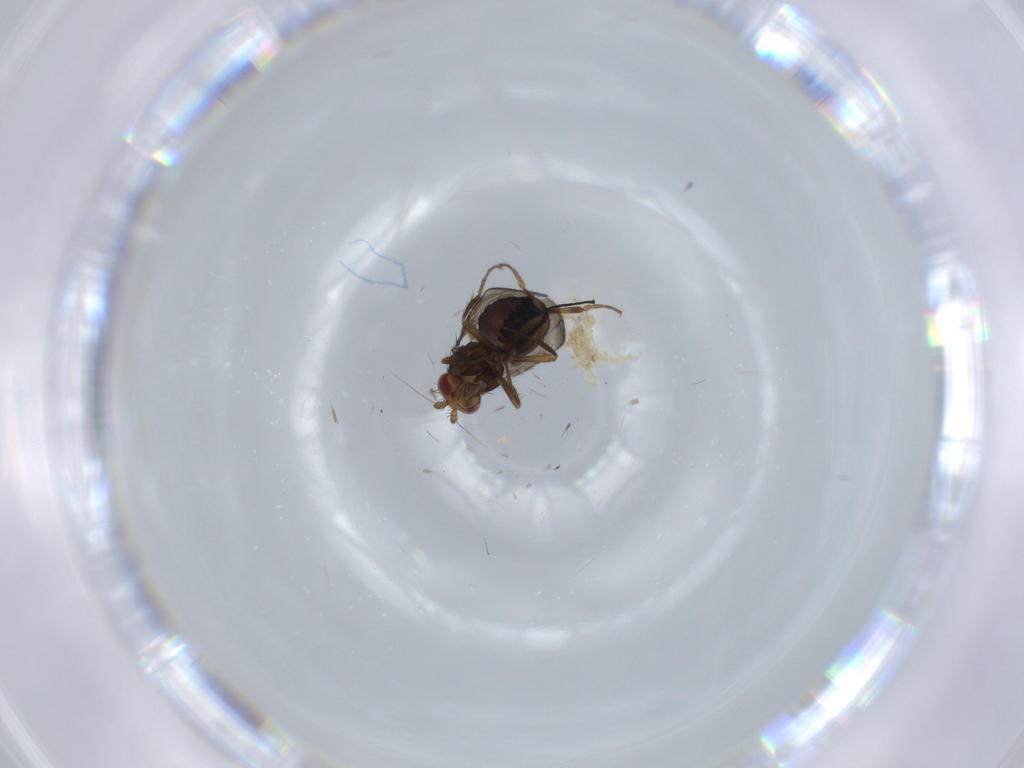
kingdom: Animalia
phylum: Arthropoda
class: Insecta
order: Diptera
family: Sphaeroceridae
